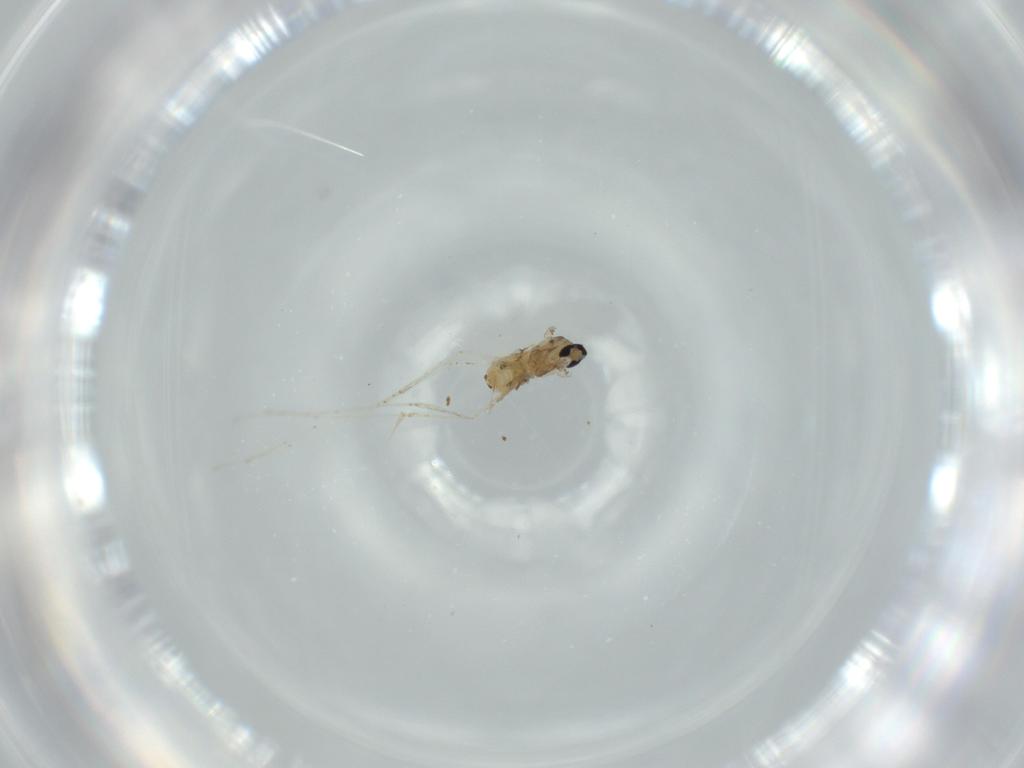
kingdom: Animalia
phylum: Arthropoda
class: Insecta
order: Diptera
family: Cecidomyiidae
